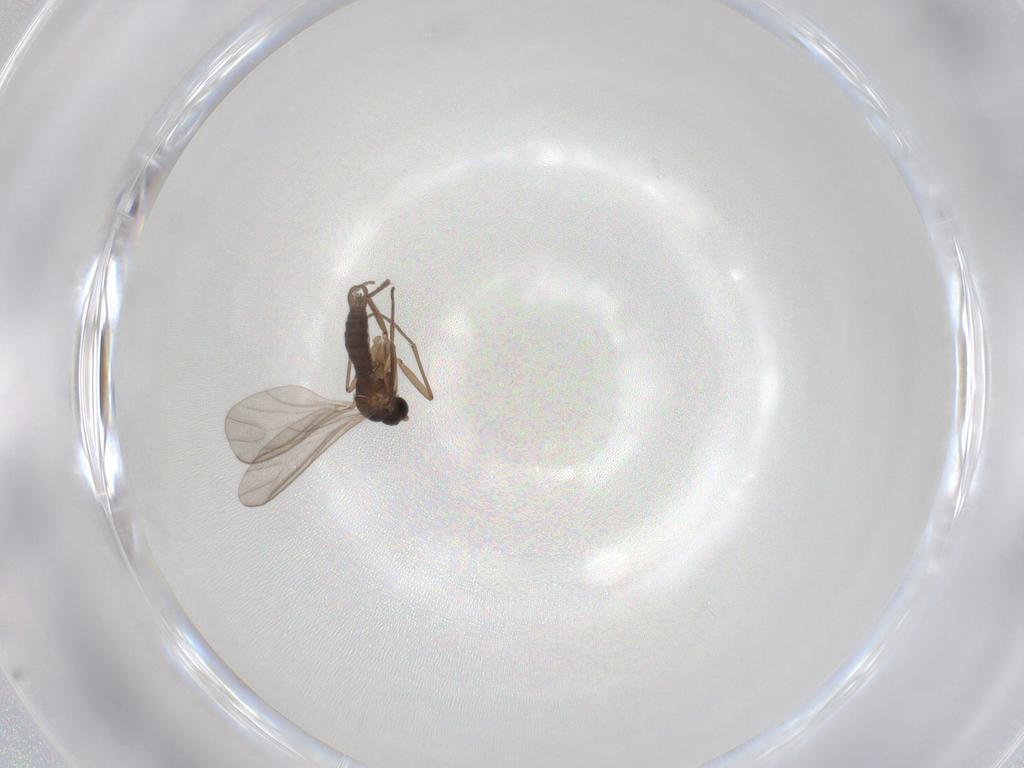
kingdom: Animalia
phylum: Arthropoda
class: Insecta
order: Diptera
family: Sciaridae
